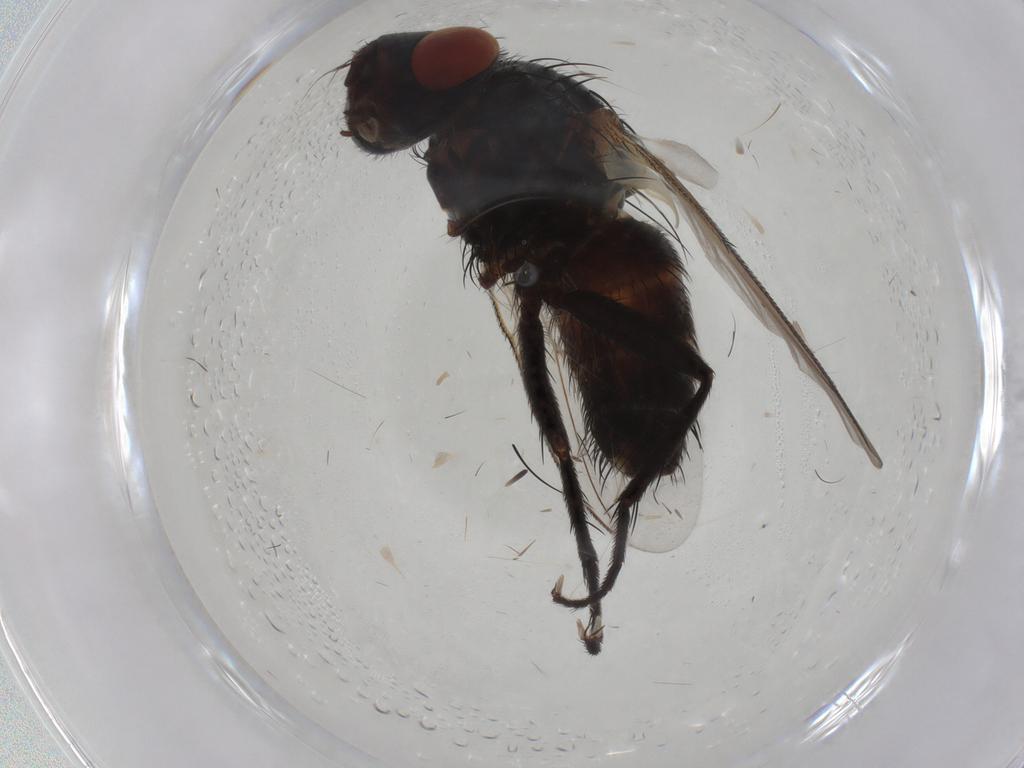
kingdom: Animalia
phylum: Arthropoda
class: Insecta
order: Diptera
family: Sarcophagidae
